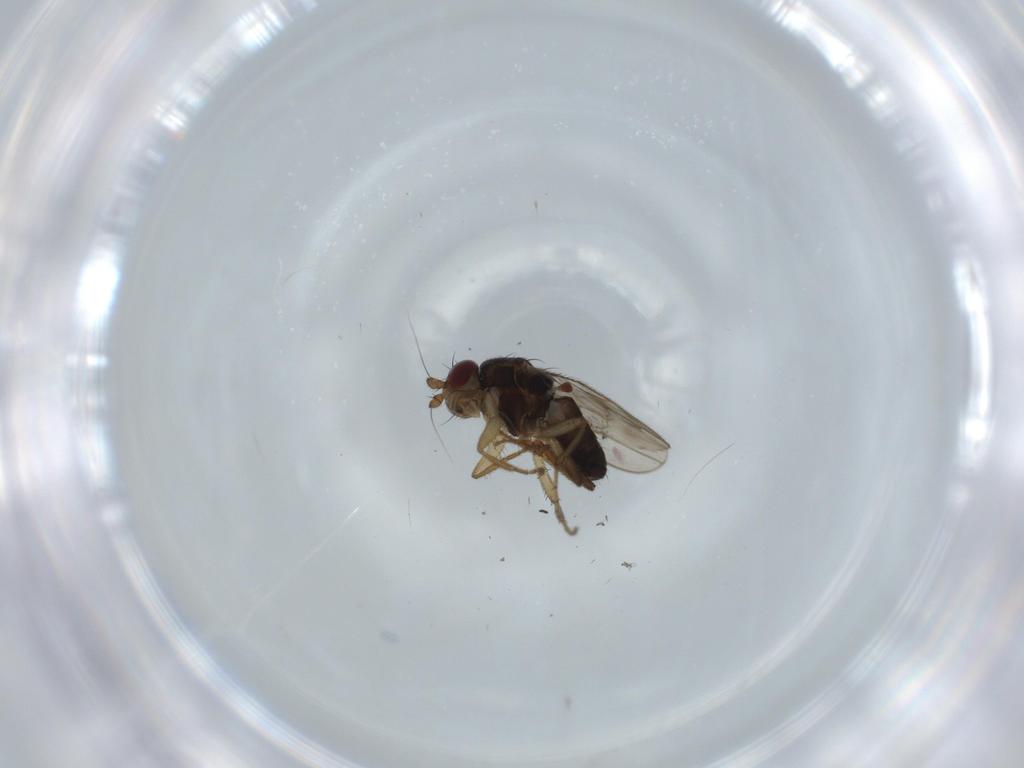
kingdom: Animalia
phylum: Arthropoda
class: Insecta
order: Diptera
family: Sphaeroceridae
